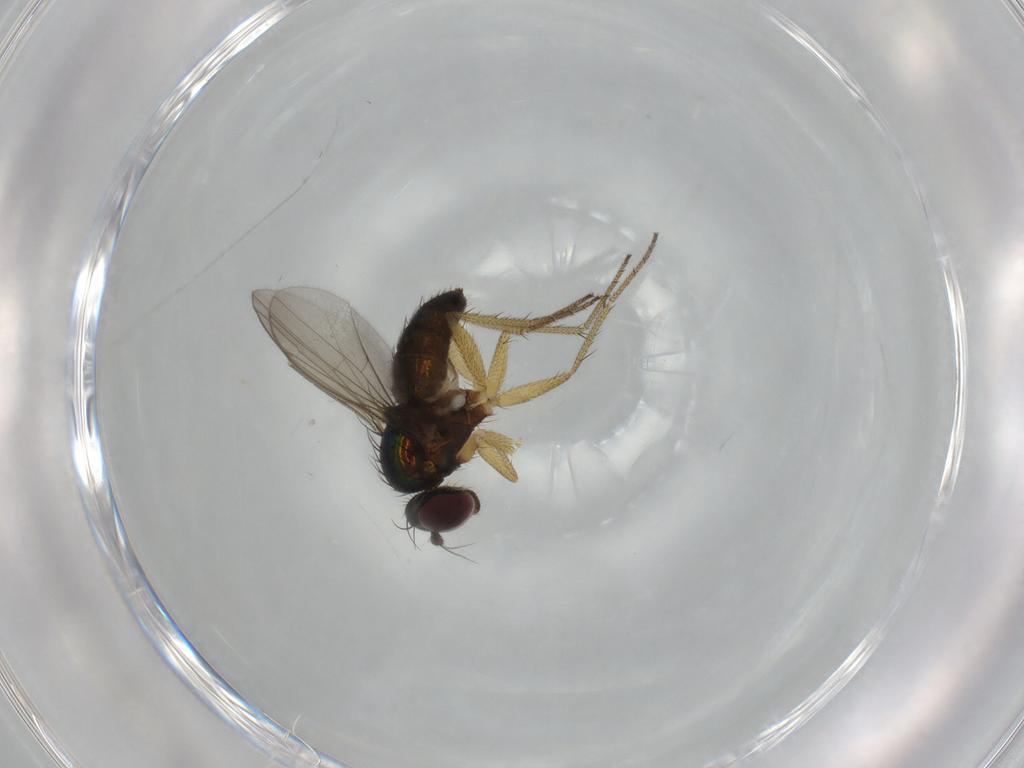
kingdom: Animalia
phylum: Arthropoda
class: Insecta
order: Diptera
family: Dolichopodidae
